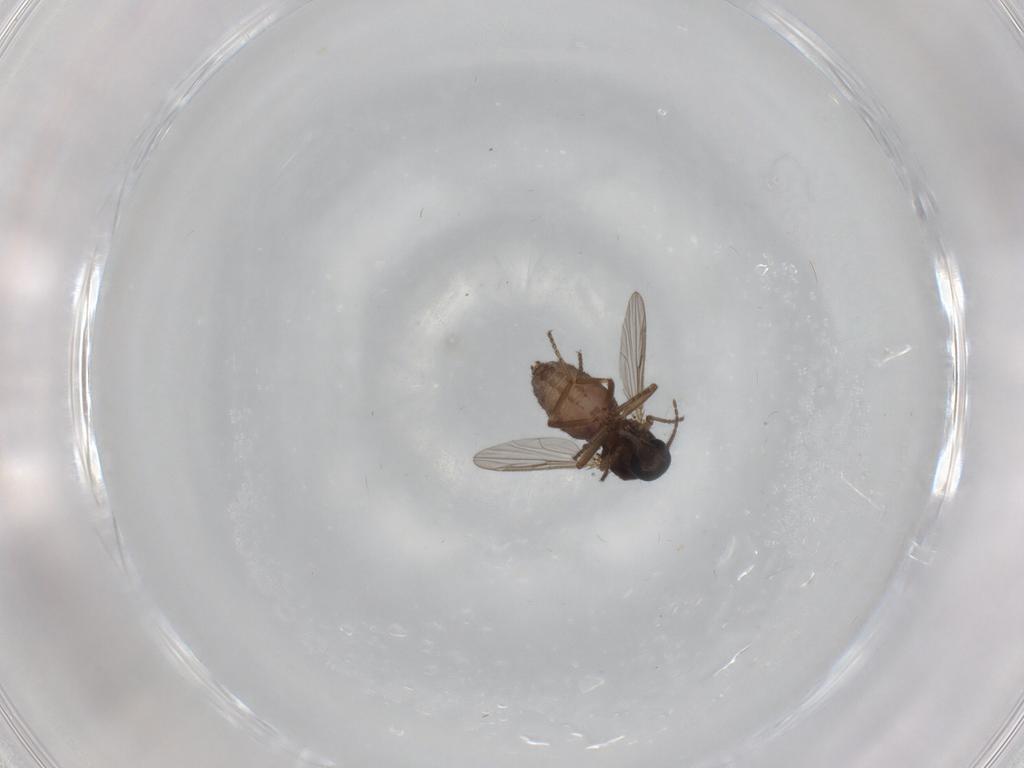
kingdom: Animalia
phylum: Arthropoda
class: Insecta
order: Diptera
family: Ceratopogonidae
